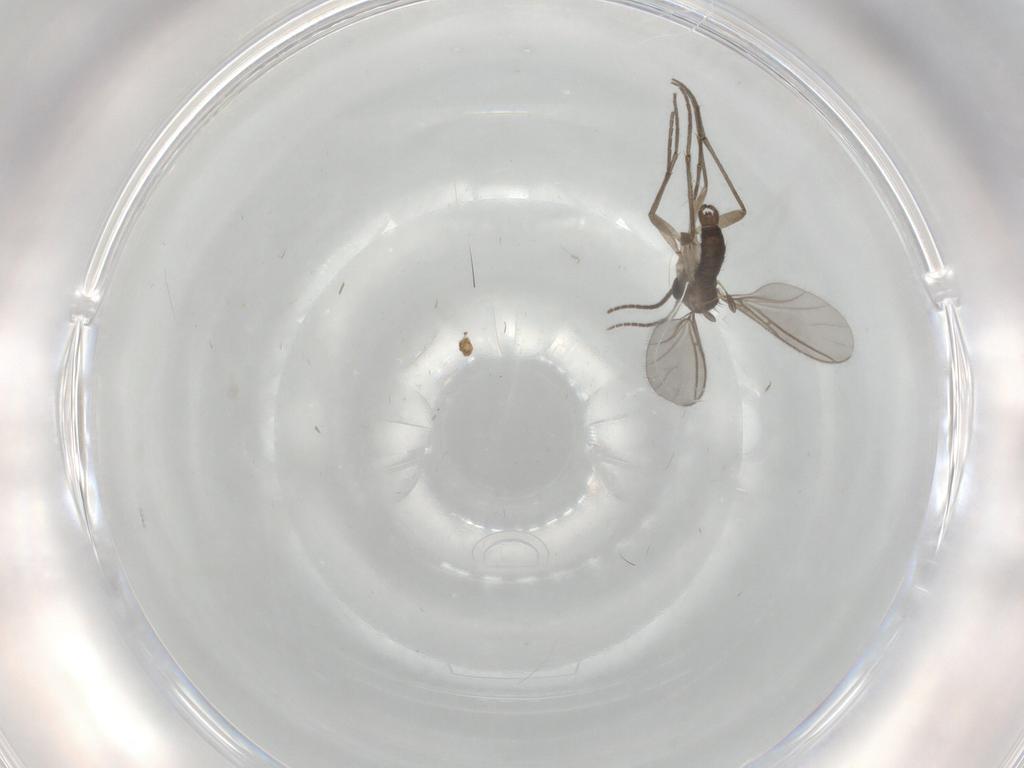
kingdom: Animalia
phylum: Arthropoda
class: Insecta
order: Diptera
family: Sciaridae
